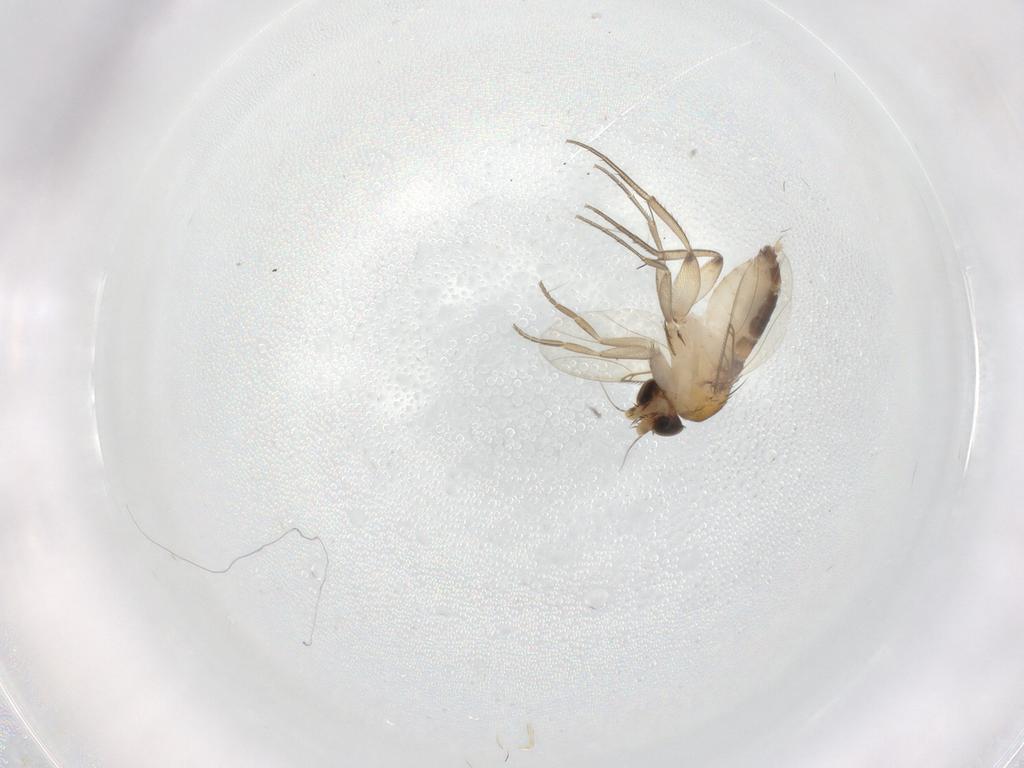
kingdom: Animalia
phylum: Arthropoda
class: Insecta
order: Diptera
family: Phoridae
